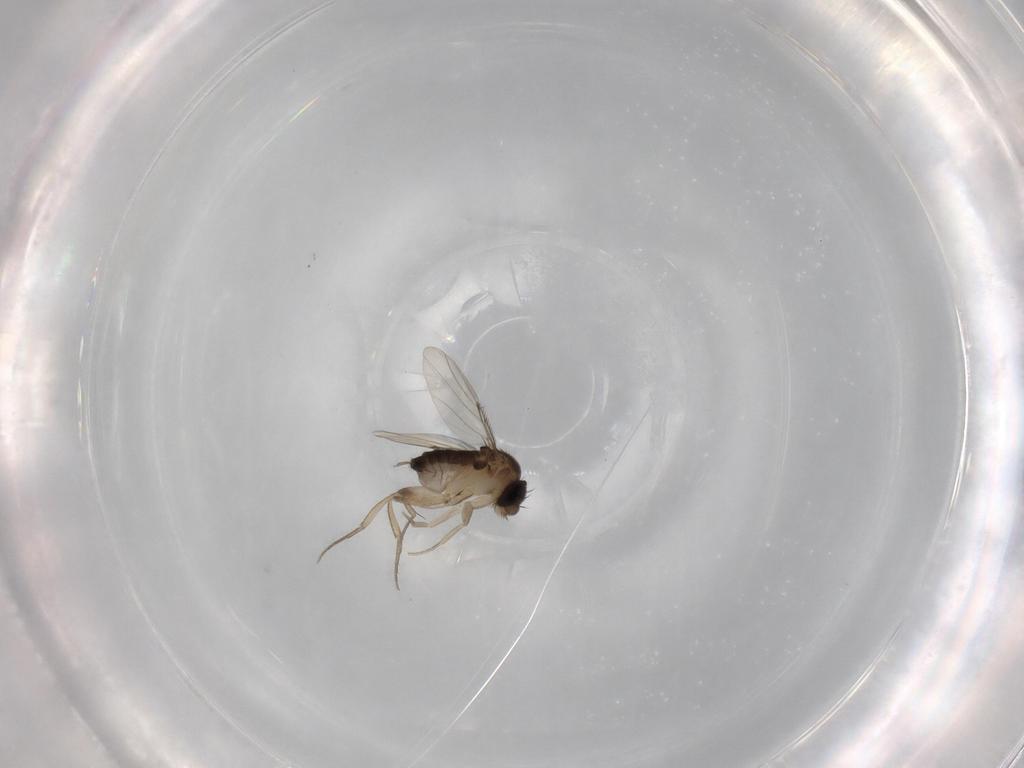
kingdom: Animalia
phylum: Arthropoda
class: Insecta
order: Diptera
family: Phoridae
